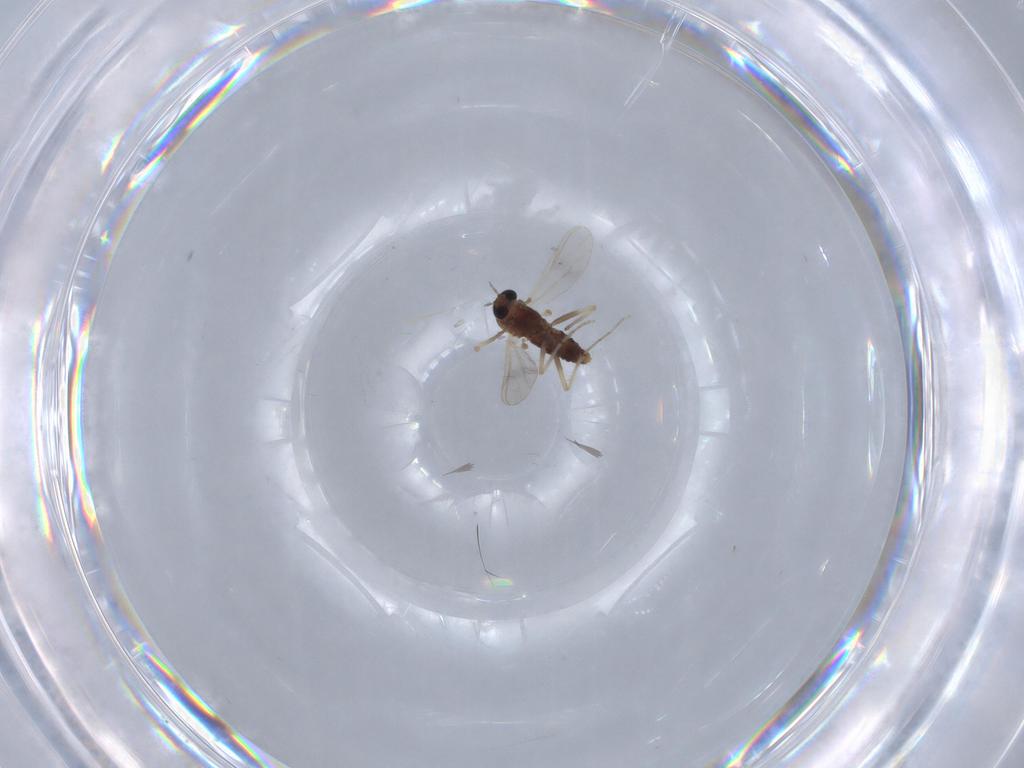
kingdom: Animalia
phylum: Arthropoda
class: Insecta
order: Diptera
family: Chironomidae
